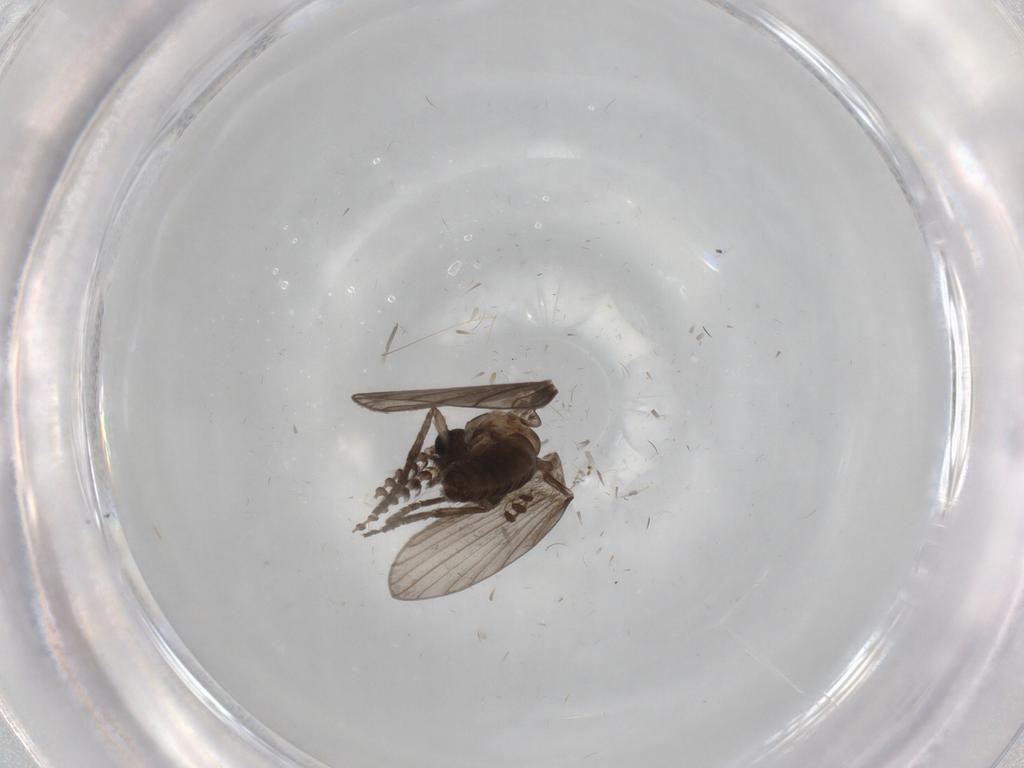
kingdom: Animalia
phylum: Arthropoda
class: Insecta
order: Diptera
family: Psychodidae
